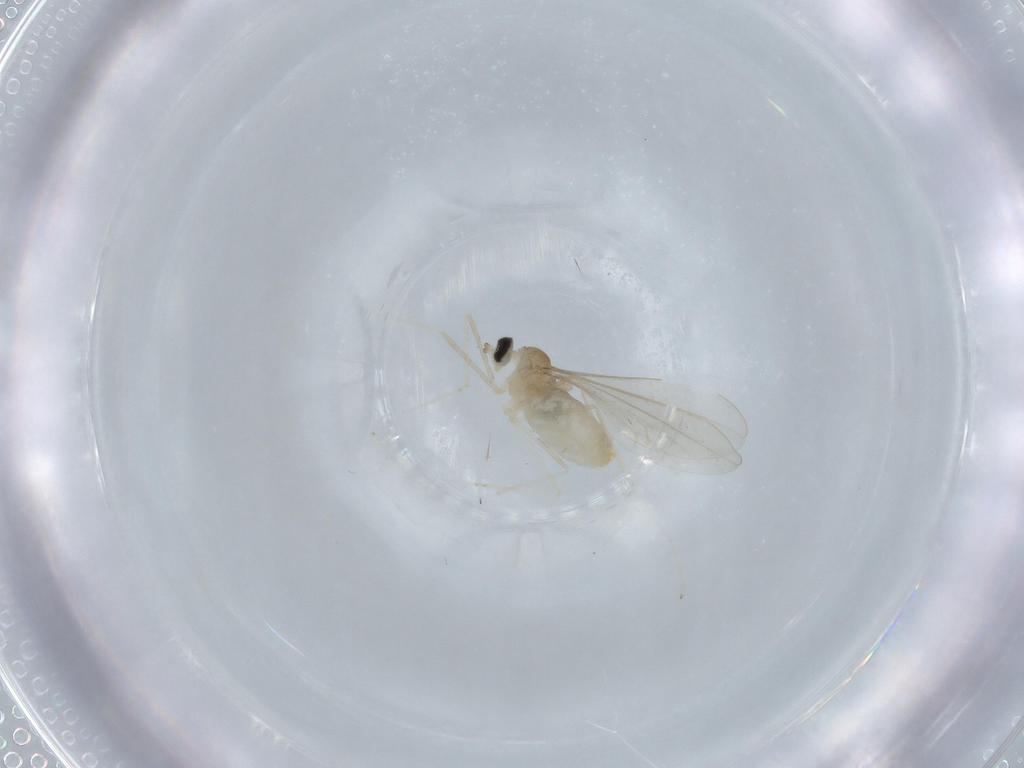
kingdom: Animalia
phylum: Arthropoda
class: Insecta
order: Diptera
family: Cecidomyiidae
